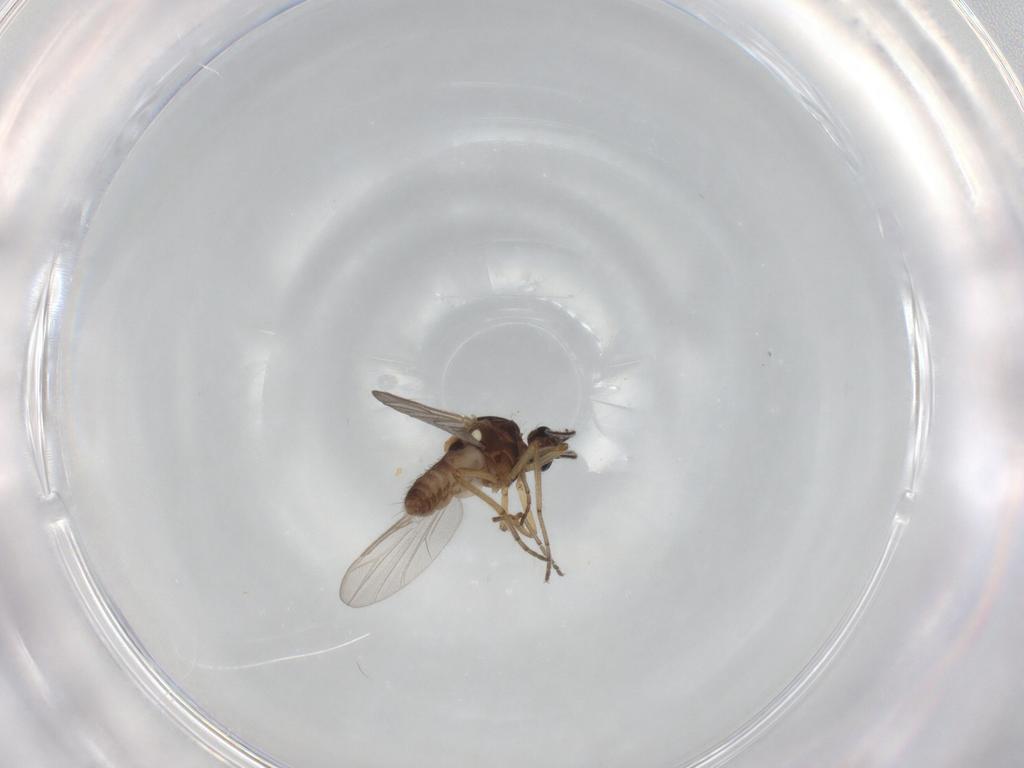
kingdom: Animalia
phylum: Arthropoda
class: Insecta
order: Diptera
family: Ceratopogonidae
